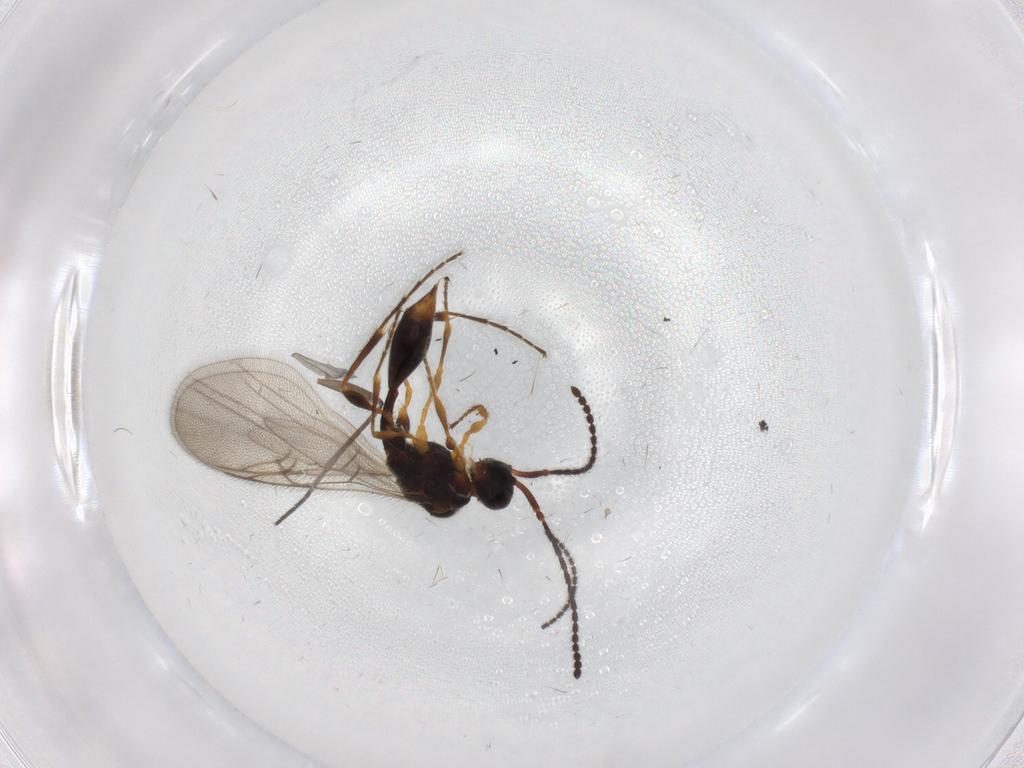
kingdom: Animalia
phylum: Arthropoda
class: Insecta
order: Hymenoptera
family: Diapriidae
